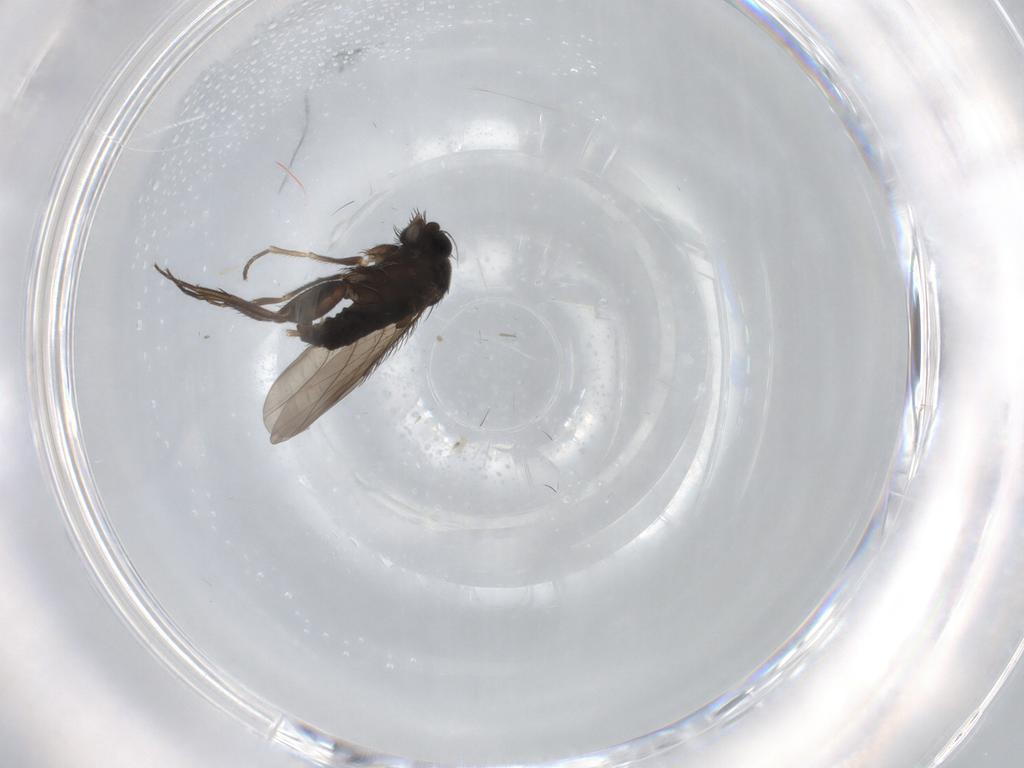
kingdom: Animalia
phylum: Arthropoda
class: Insecta
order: Diptera
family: Phoridae
